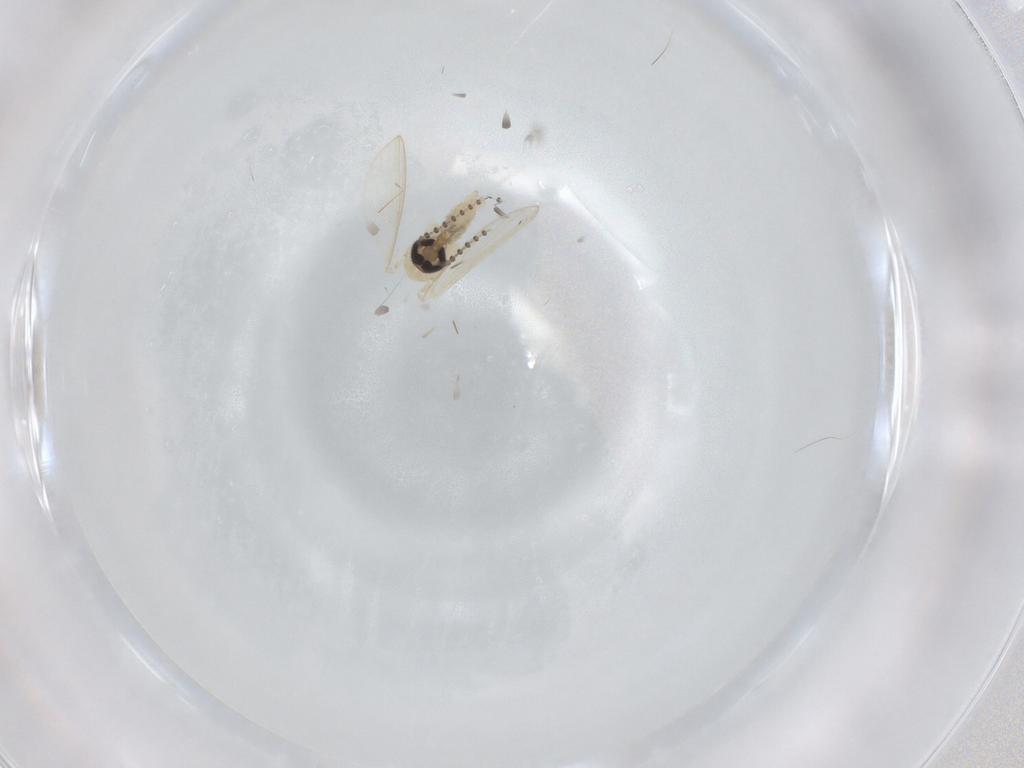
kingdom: Animalia
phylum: Arthropoda
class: Insecta
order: Diptera
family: Psychodidae
